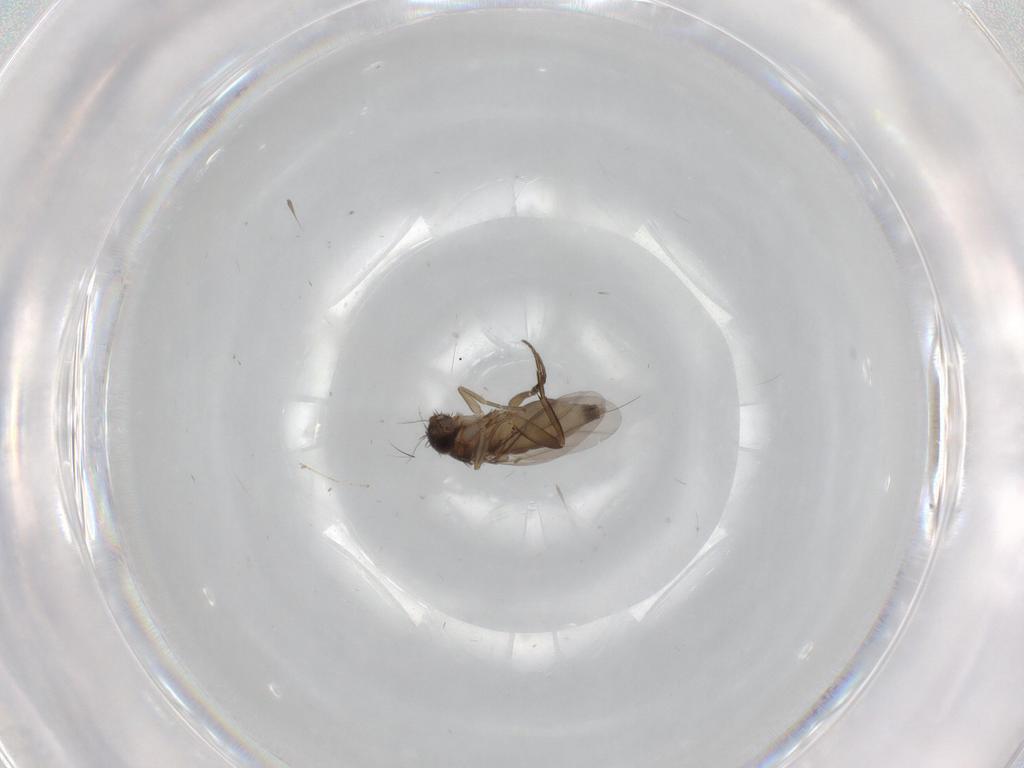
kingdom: Animalia
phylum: Arthropoda
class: Insecta
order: Diptera
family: Phoridae
